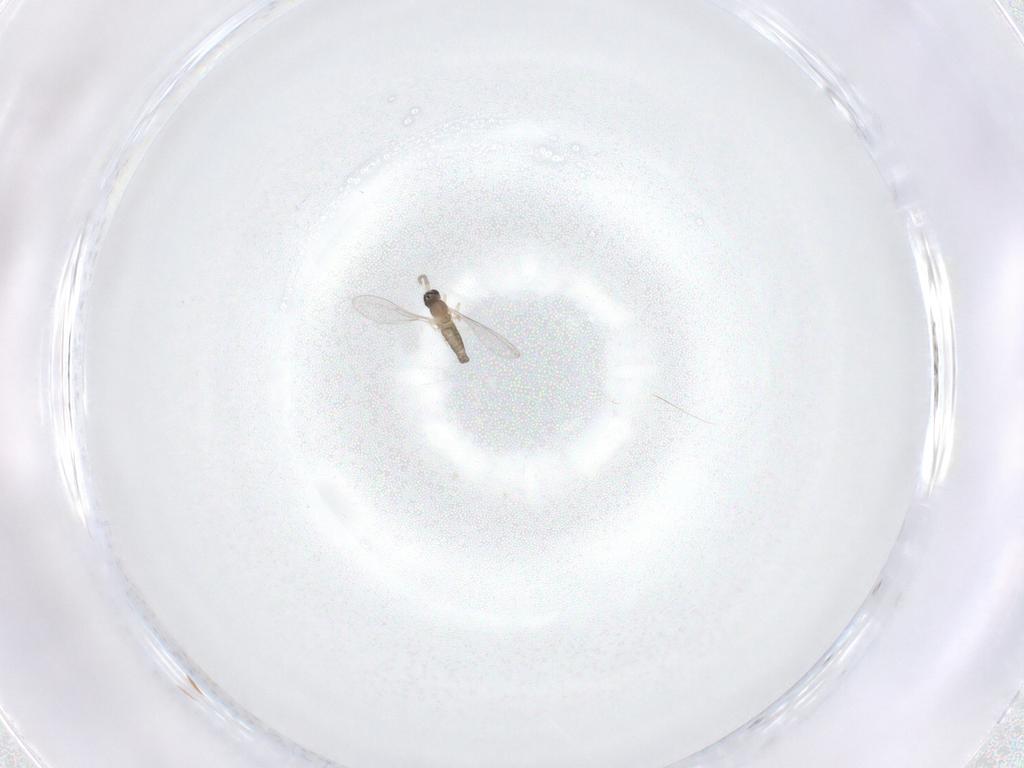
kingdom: Animalia
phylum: Arthropoda
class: Insecta
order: Diptera
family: Cecidomyiidae
